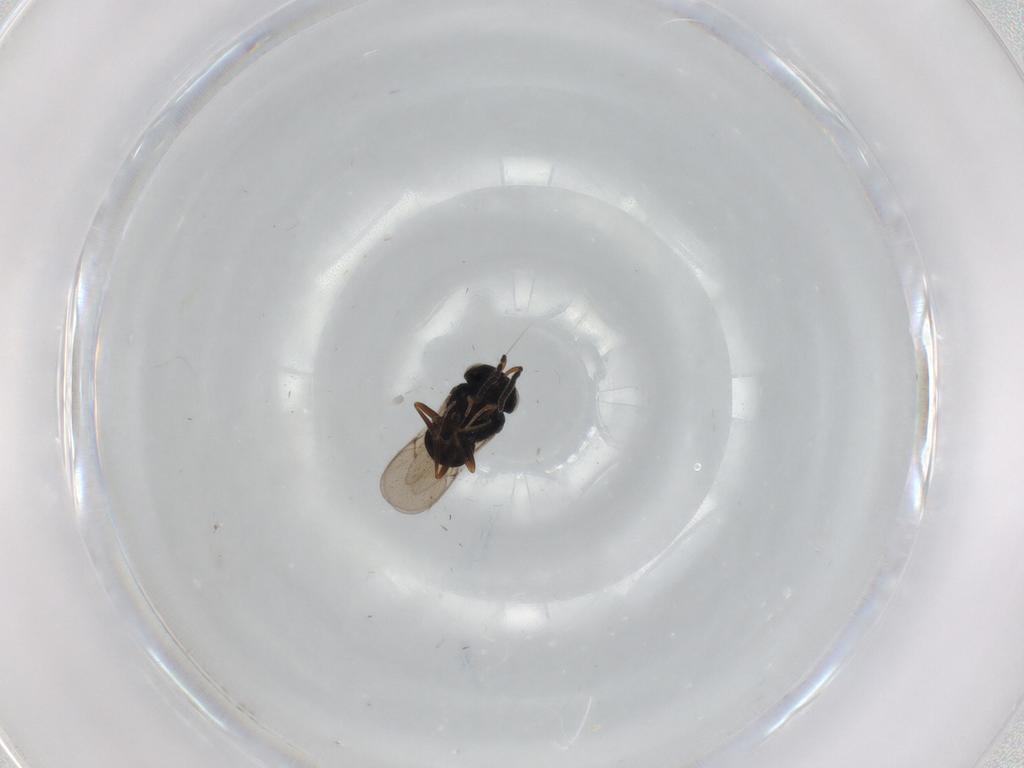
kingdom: Animalia
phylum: Arthropoda
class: Insecta
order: Hymenoptera
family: Scelionidae
